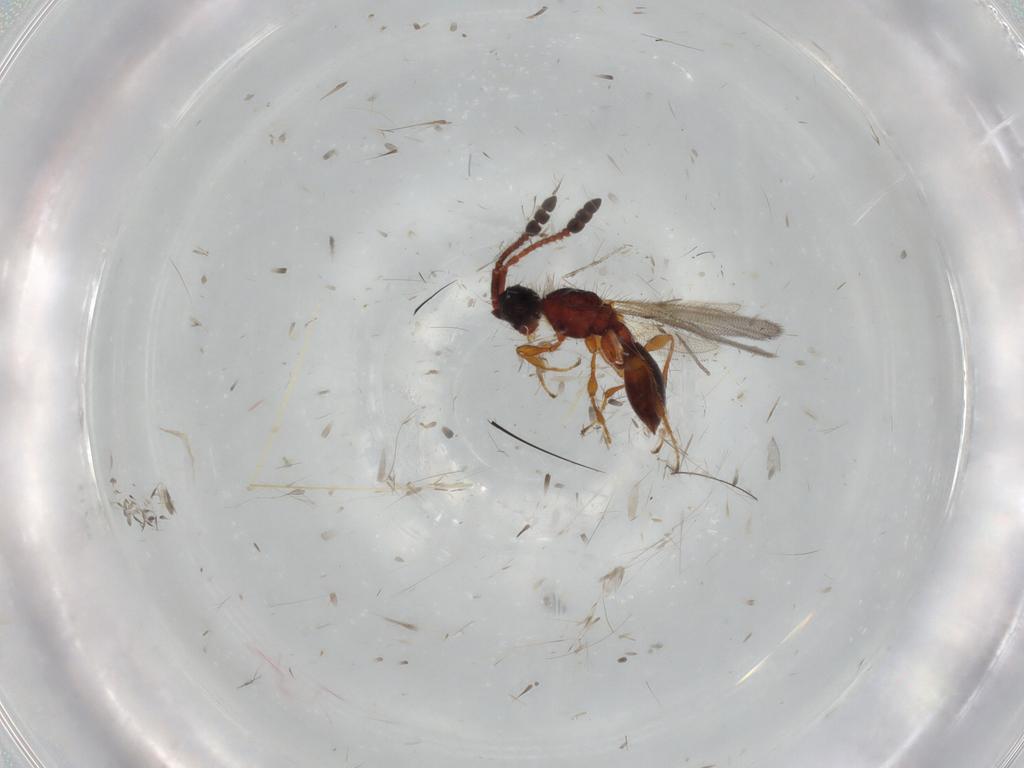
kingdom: Animalia
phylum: Arthropoda
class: Insecta
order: Hymenoptera
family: Diapriidae
